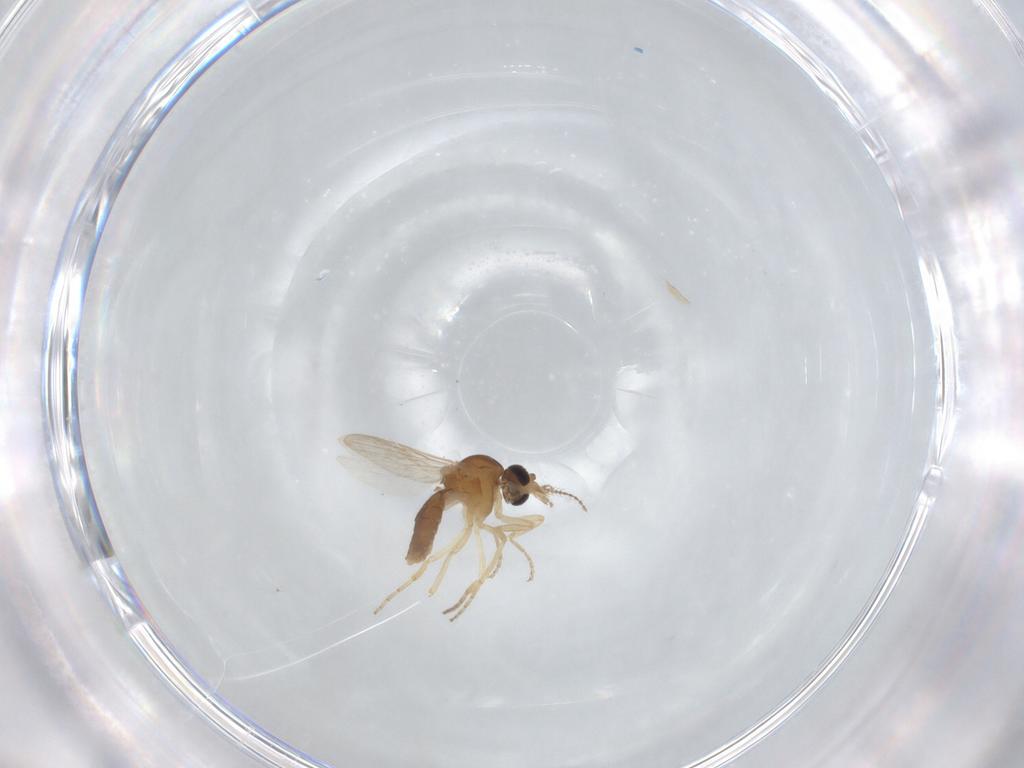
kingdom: Animalia
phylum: Arthropoda
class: Insecta
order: Diptera
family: Ceratopogonidae
